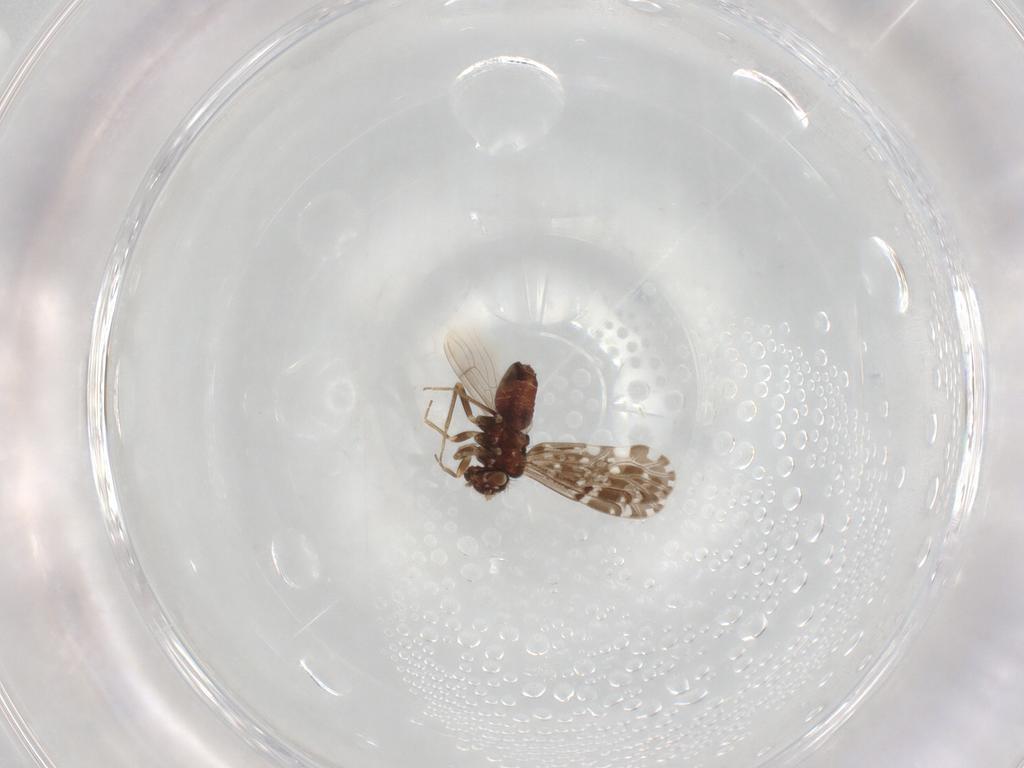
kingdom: Animalia
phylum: Arthropoda
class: Insecta
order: Psocodea
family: Ectopsocidae
